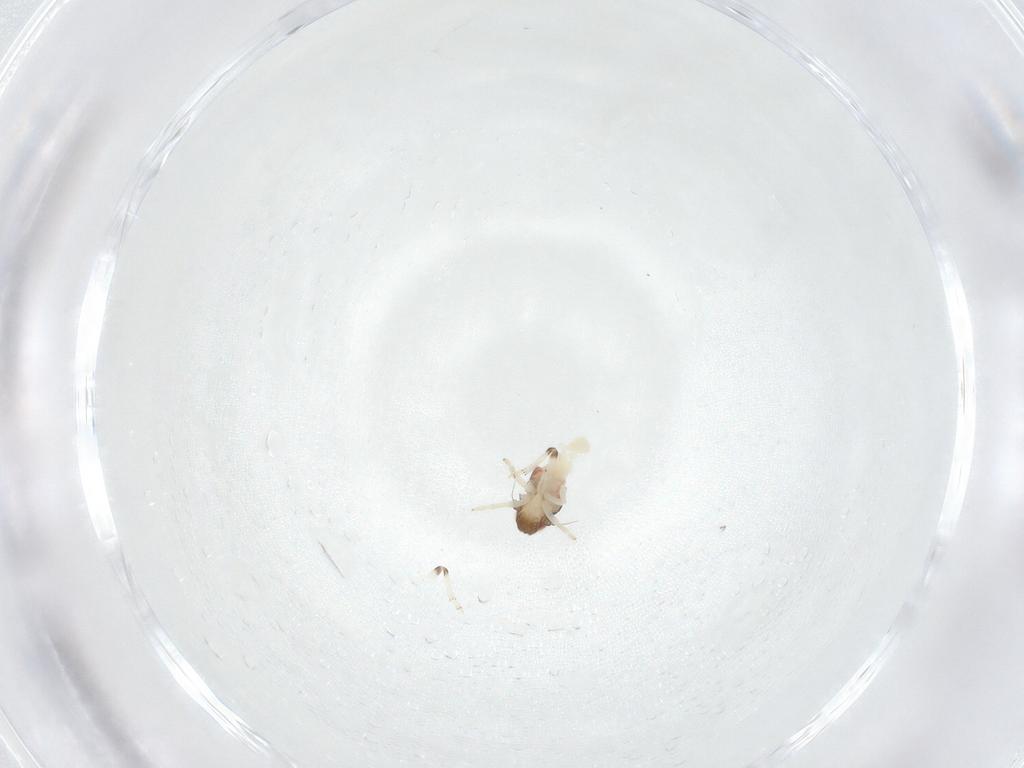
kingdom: Animalia
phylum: Arthropoda
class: Insecta
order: Hemiptera
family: Nogodinidae
